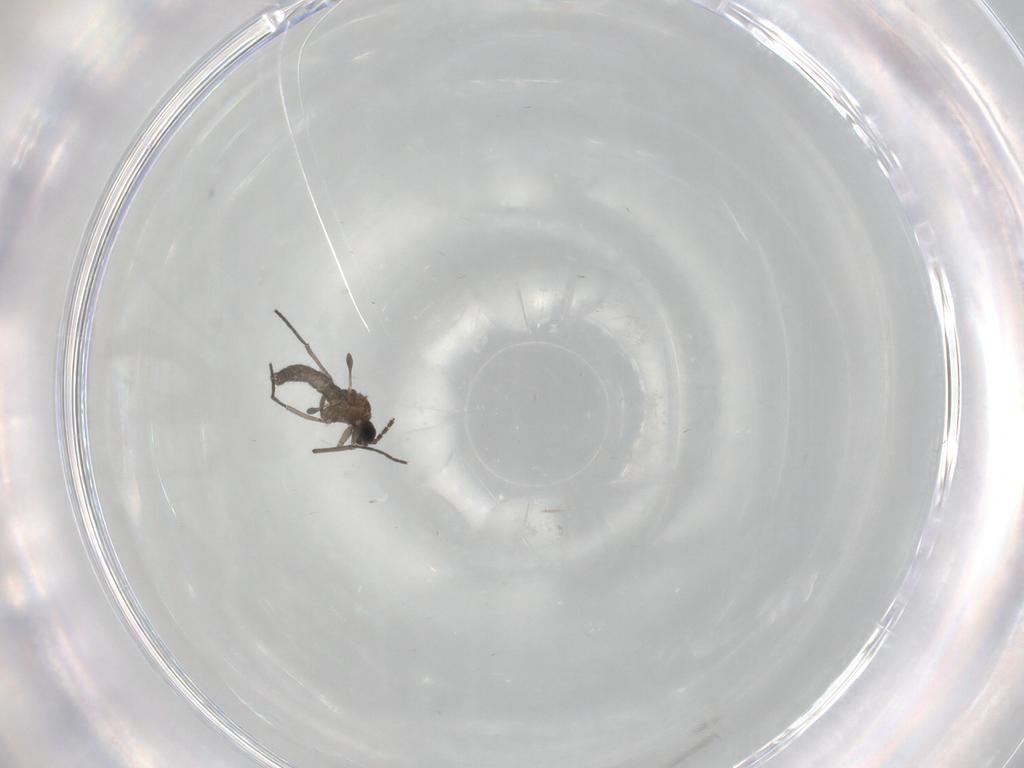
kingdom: Animalia
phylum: Arthropoda
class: Insecta
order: Diptera
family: Sciaridae
